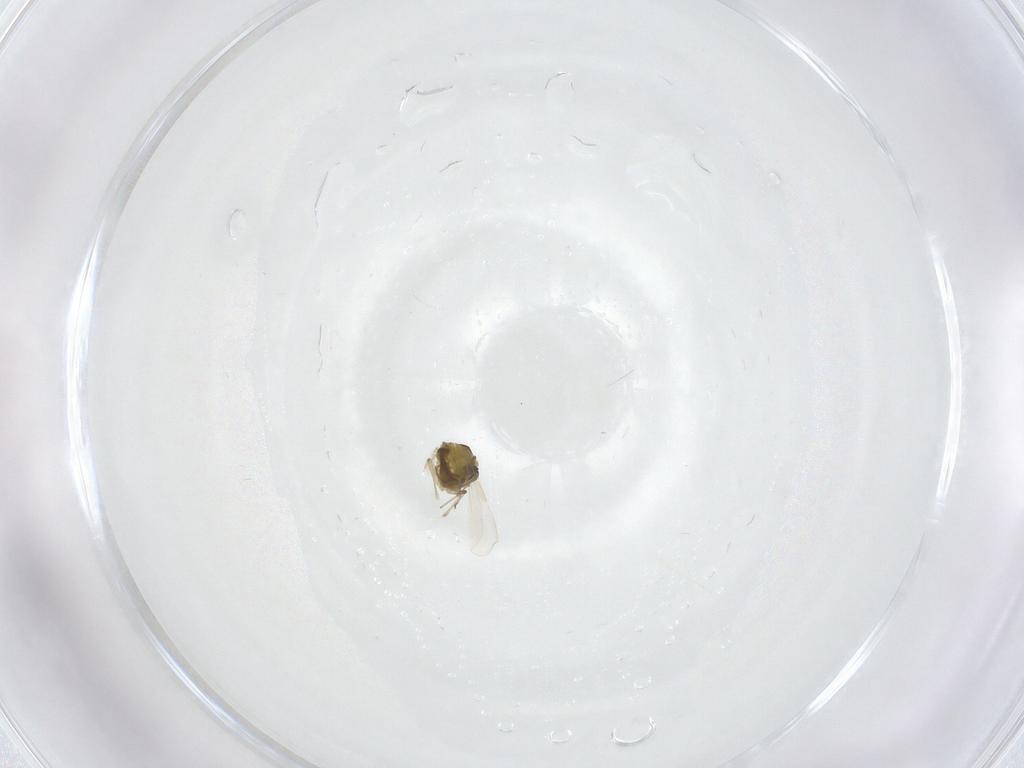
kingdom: Animalia
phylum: Arthropoda
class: Insecta
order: Diptera
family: Chironomidae
